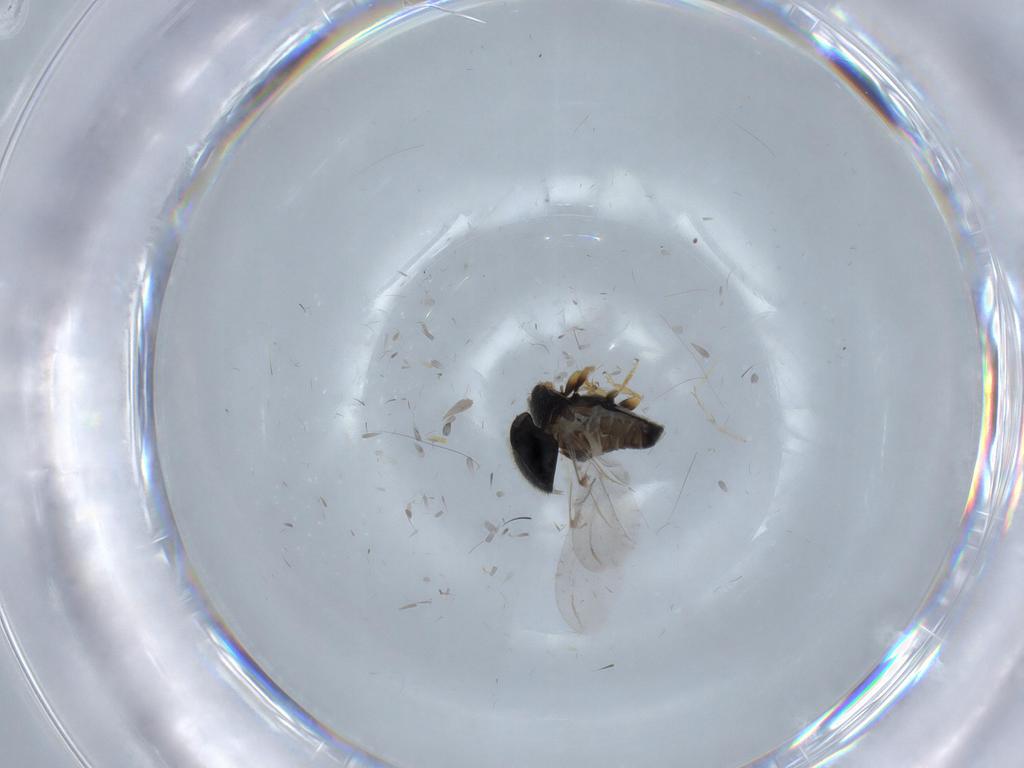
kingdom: Animalia
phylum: Arthropoda
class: Insecta
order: Coleoptera
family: Coccinellidae
